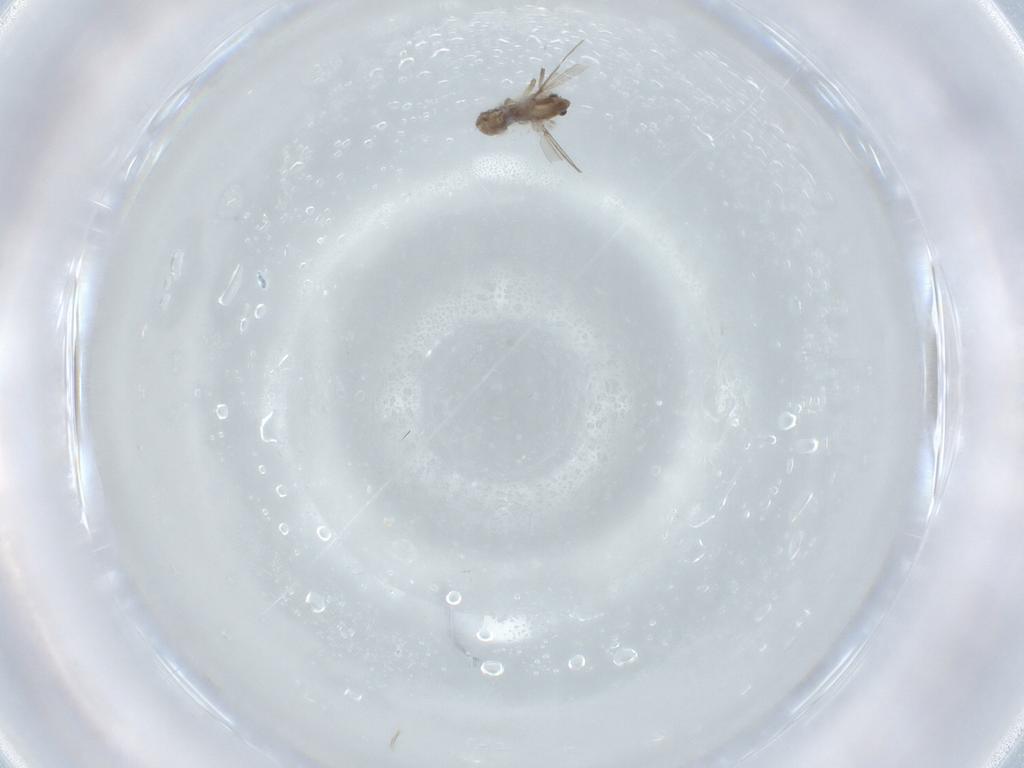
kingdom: Animalia
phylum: Arthropoda
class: Insecta
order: Diptera
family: Chironomidae
